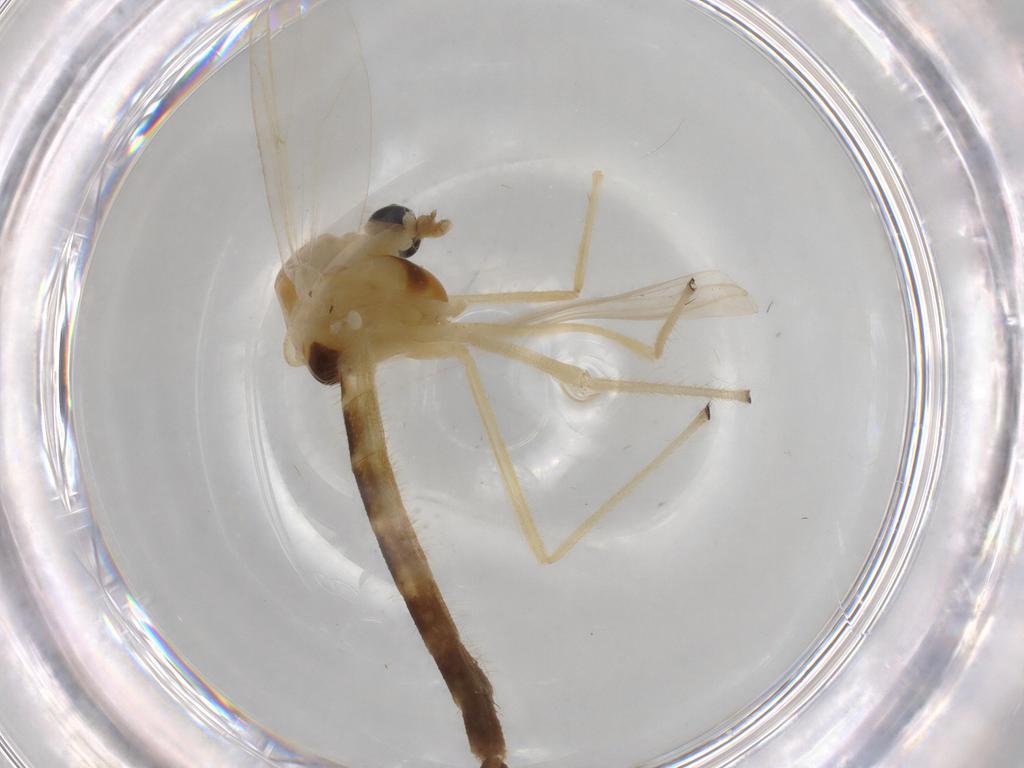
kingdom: Animalia
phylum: Arthropoda
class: Insecta
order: Diptera
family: Chironomidae
